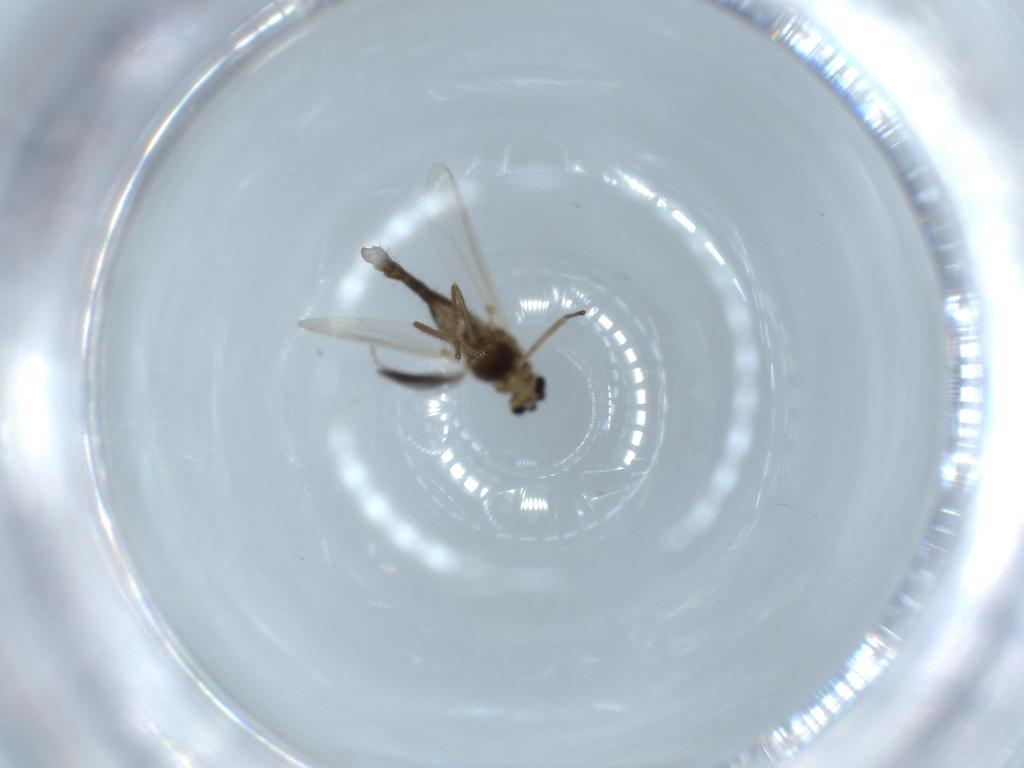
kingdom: Animalia
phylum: Arthropoda
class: Insecta
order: Diptera
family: Chironomidae
